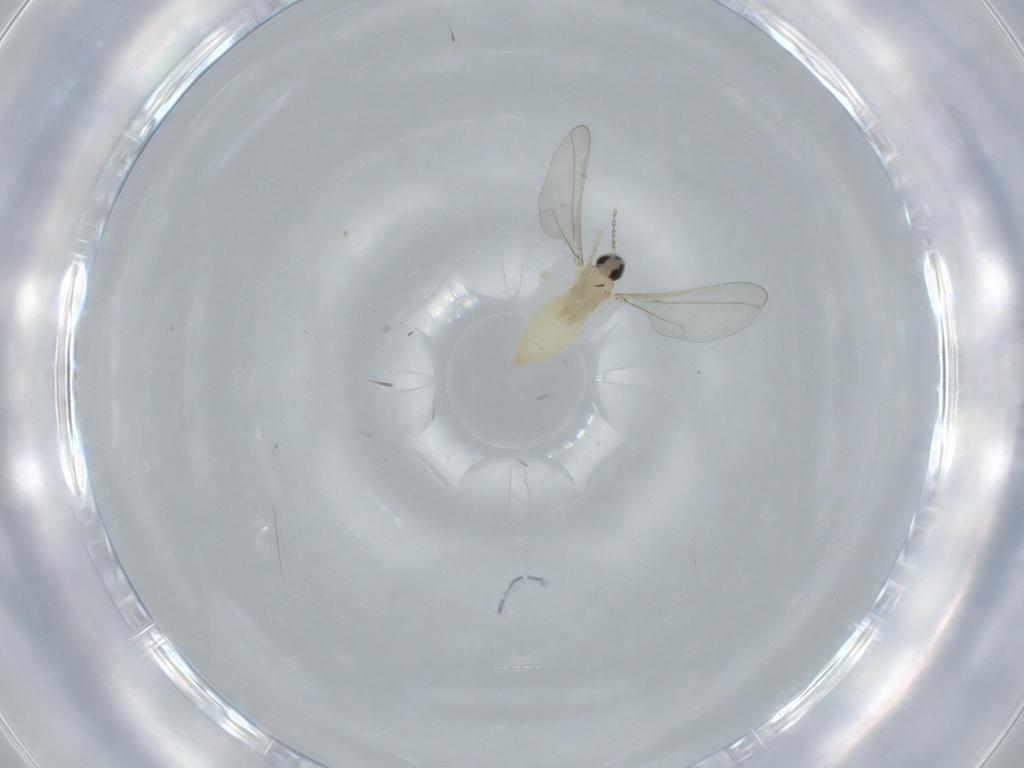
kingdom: Animalia
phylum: Arthropoda
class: Insecta
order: Diptera
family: Cecidomyiidae
